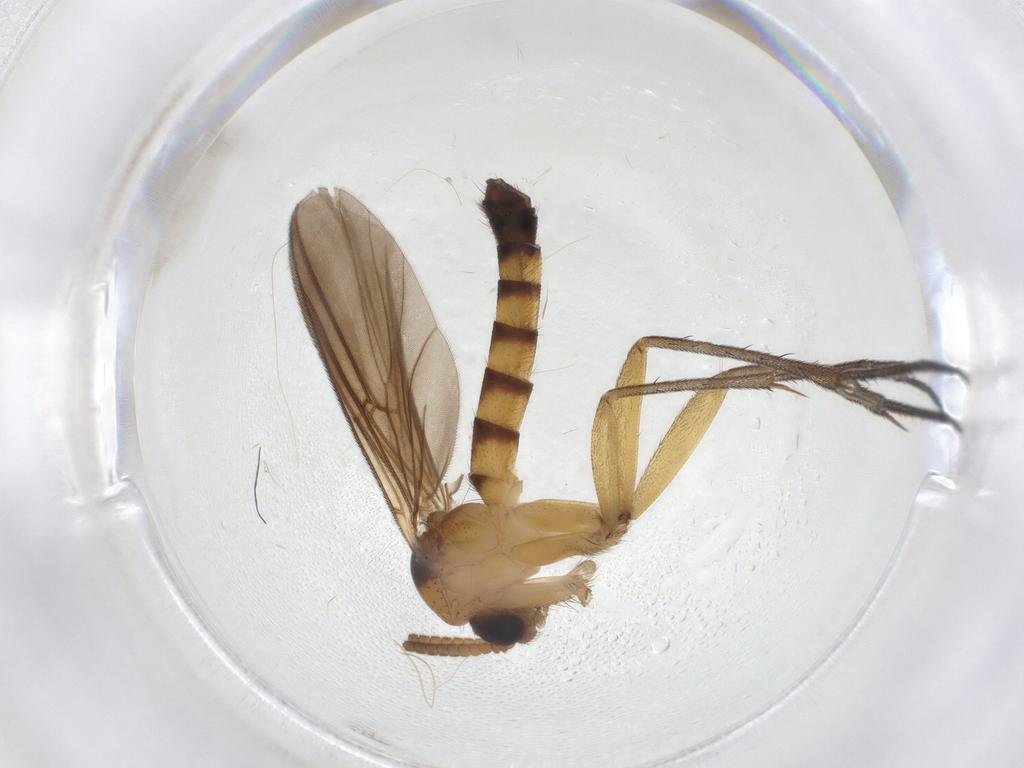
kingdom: Animalia
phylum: Arthropoda
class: Insecta
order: Diptera
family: Mycetophilidae
